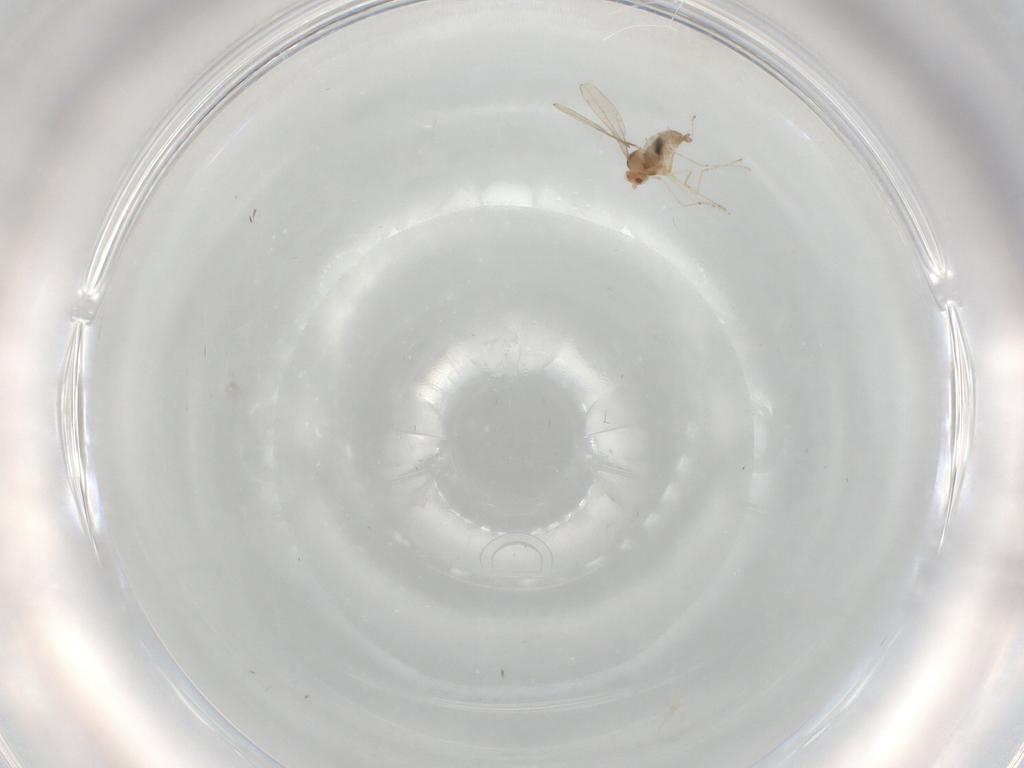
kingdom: Animalia
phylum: Arthropoda
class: Insecta
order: Diptera
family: Cecidomyiidae
